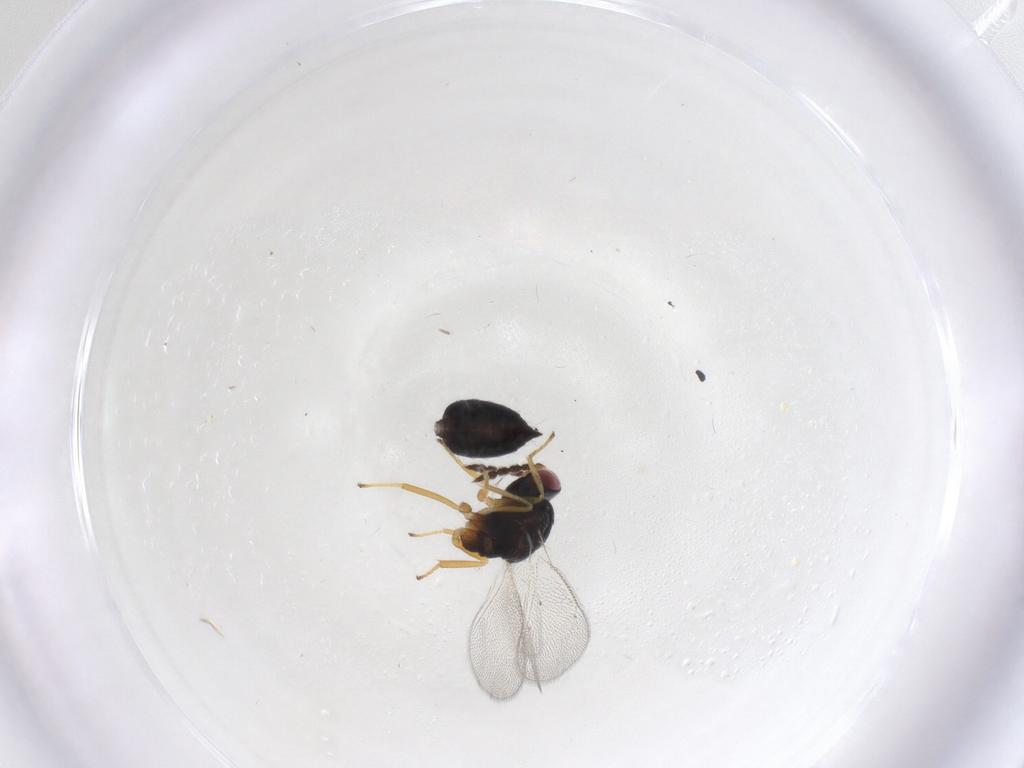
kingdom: Animalia
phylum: Arthropoda
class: Insecta
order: Hymenoptera
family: Eulophidae
